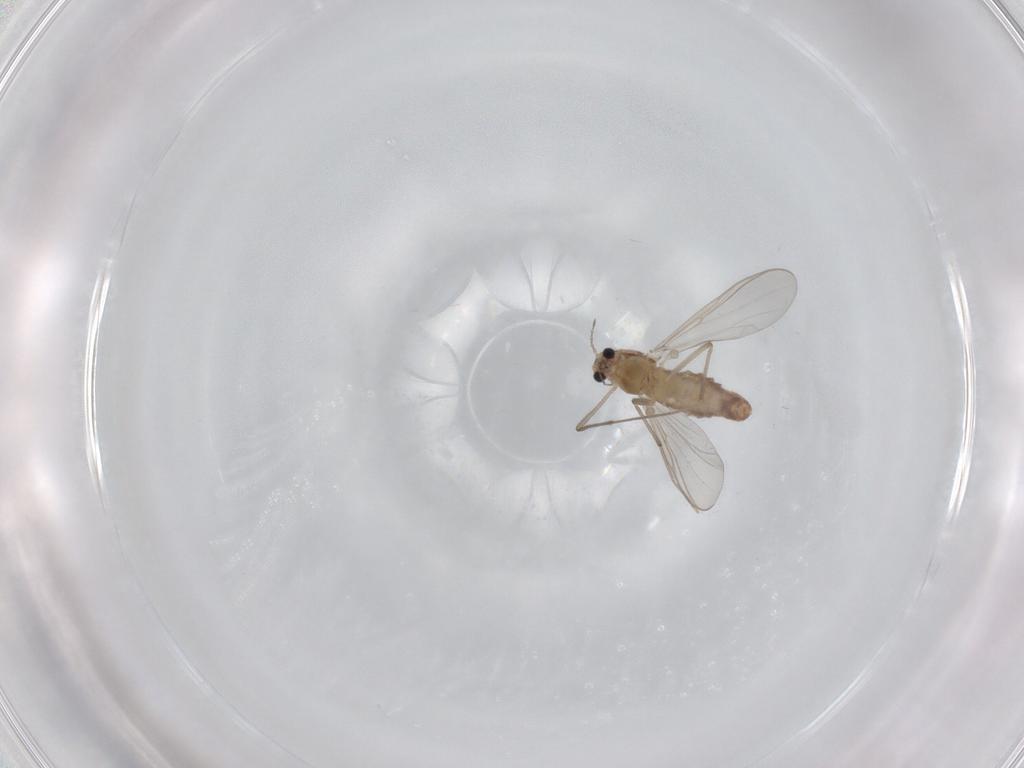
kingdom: Animalia
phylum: Arthropoda
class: Insecta
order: Diptera
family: Chironomidae
